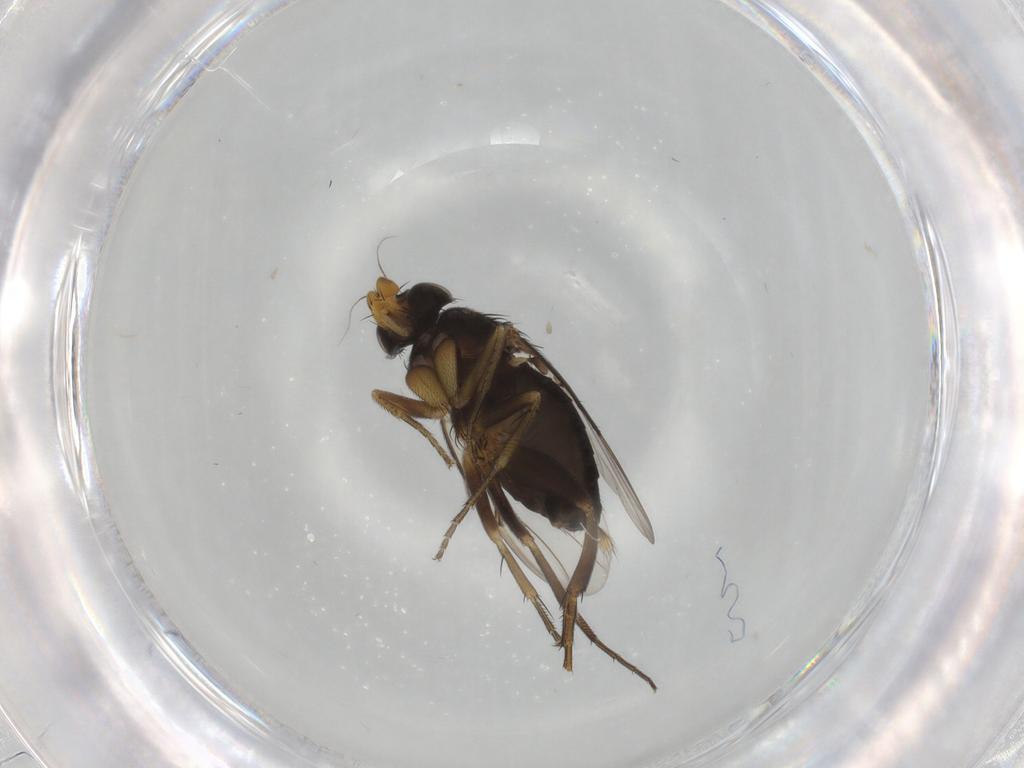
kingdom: Animalia
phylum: Arthropoda
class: Insecta
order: Diptera
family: Phoridae
